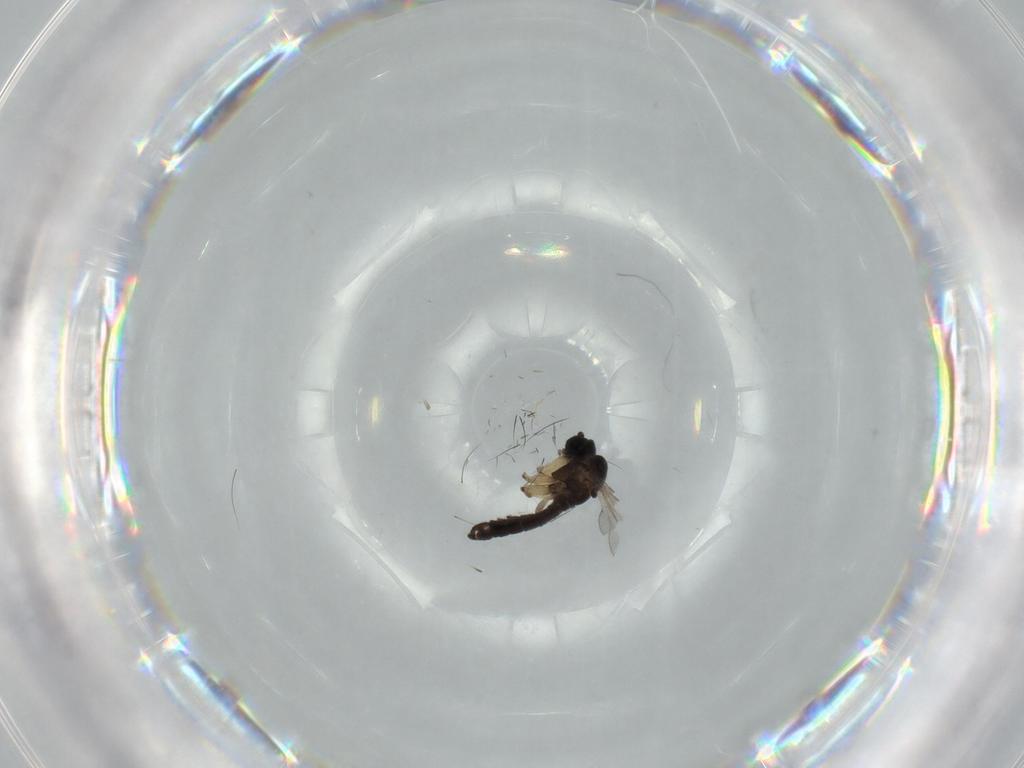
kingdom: Animalia
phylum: Arthropoda
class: Insecta
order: Diptera
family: Sciaridae
